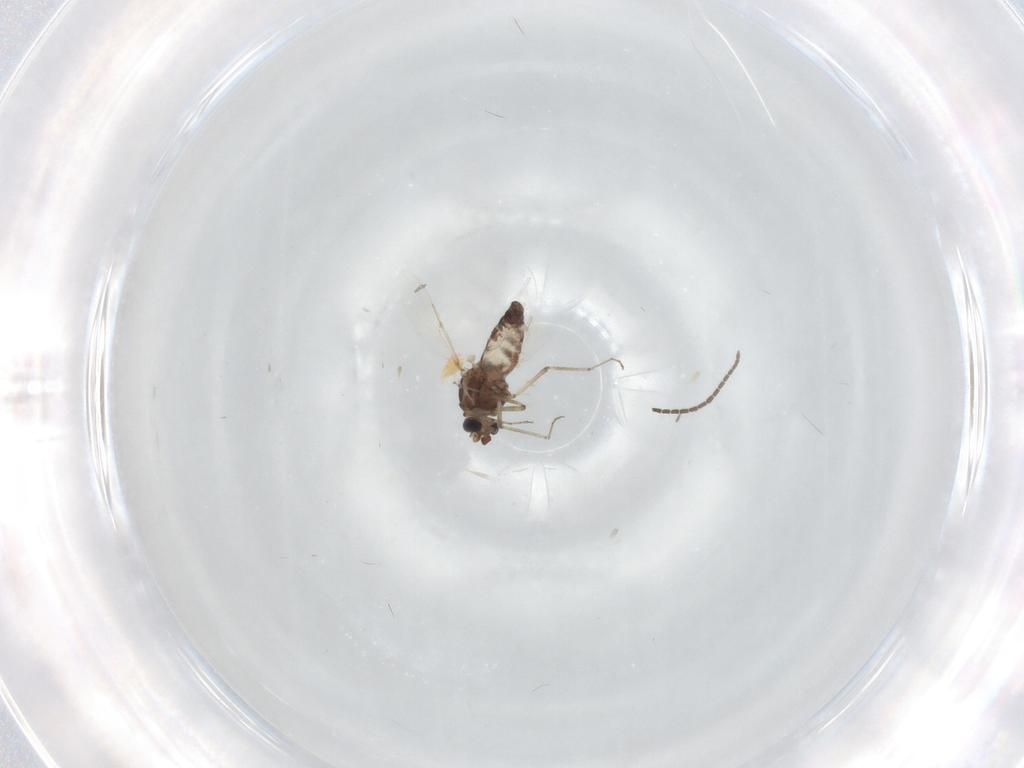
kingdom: Animalia
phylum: Arthropoda
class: Insecta
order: Diptera
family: Ceratopogonidae
